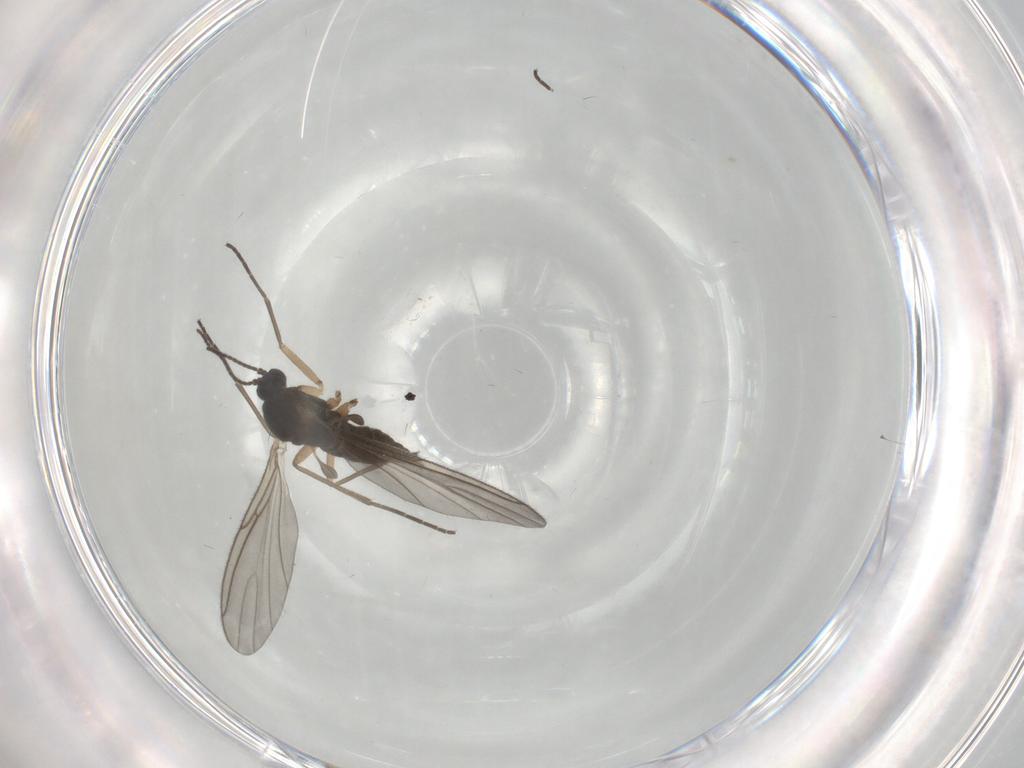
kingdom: Animalia
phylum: Arthropoda
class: Insecta
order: Diptera
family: Sciaridae
